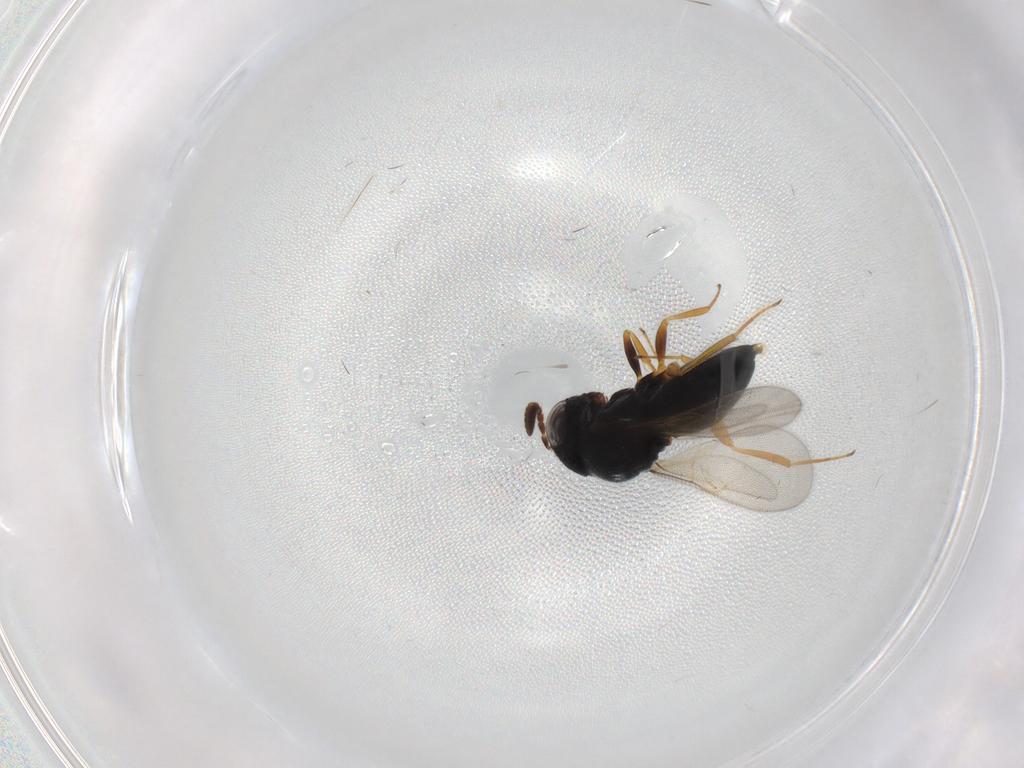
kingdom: Animalia
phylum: Arthropoda
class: Insecta
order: Hymenoptera
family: Scelionidae
